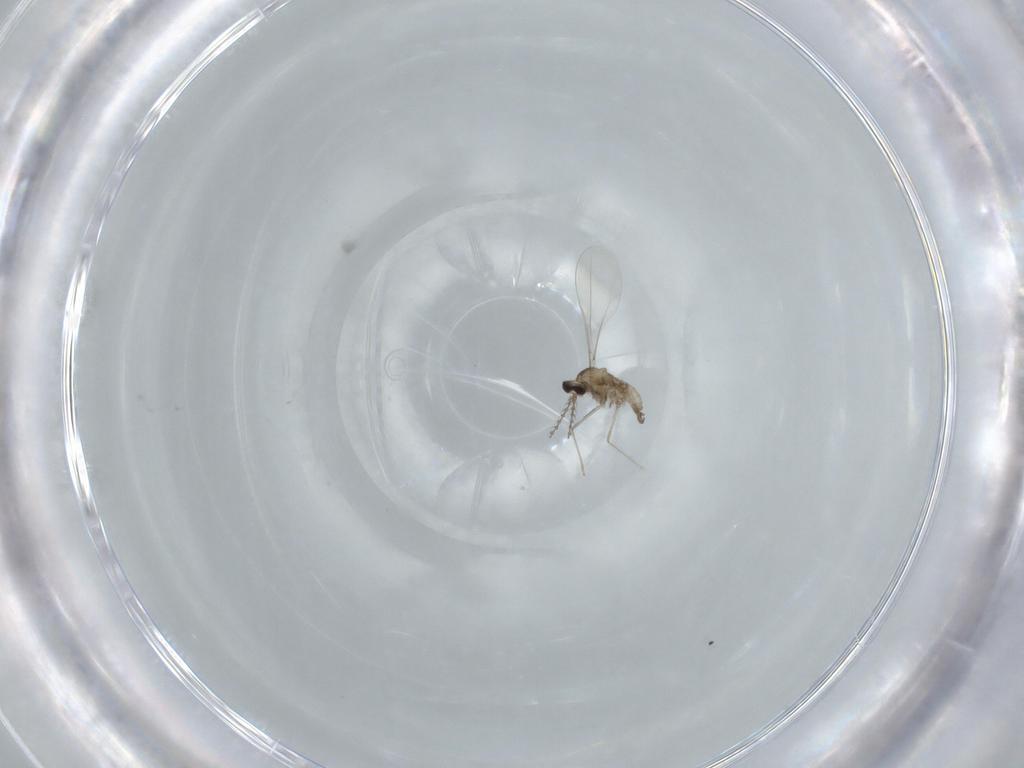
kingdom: Animalia
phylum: Arthropoda
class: Insecta
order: Diptera
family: Cecidomyiidae
